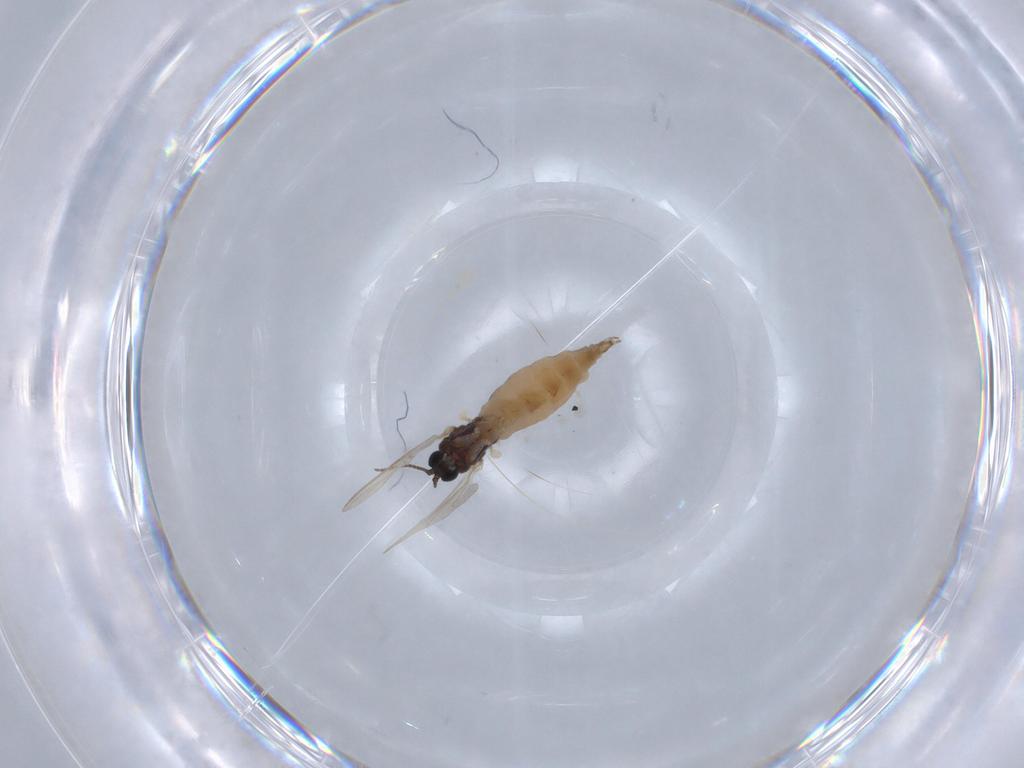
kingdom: Animalia
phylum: Arthropoda
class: Insecta
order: Diptera
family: Sciaridae
